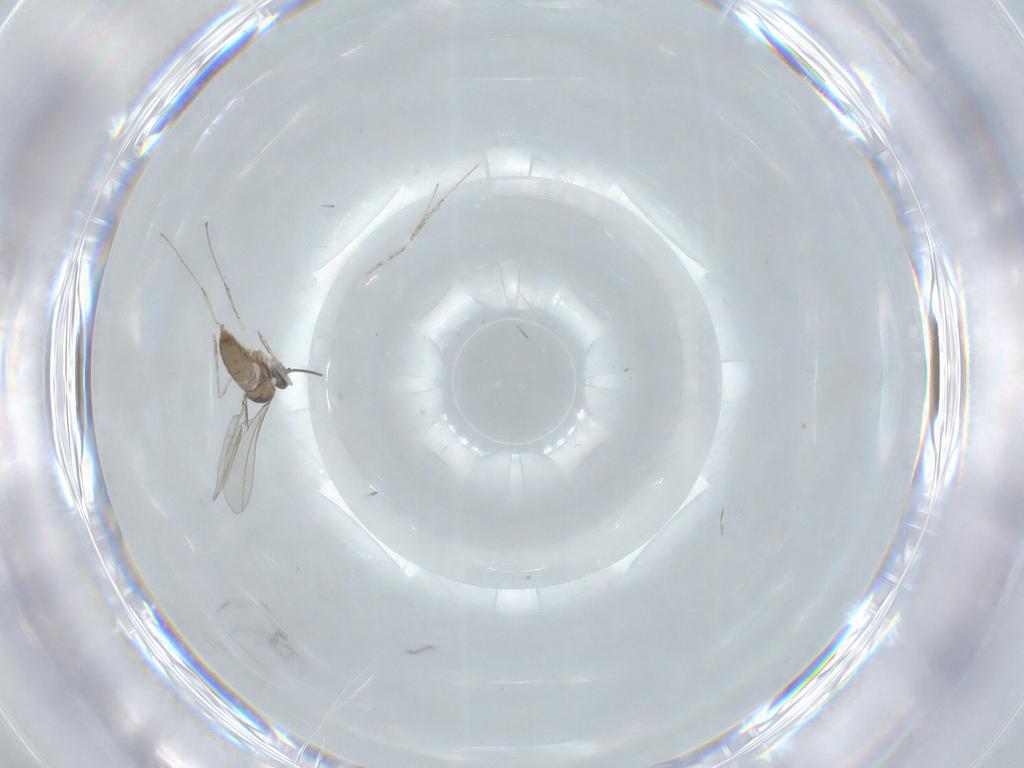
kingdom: Animalia
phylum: Arthropoda
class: Insecta
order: Diptera
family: Cecidomyiidae
